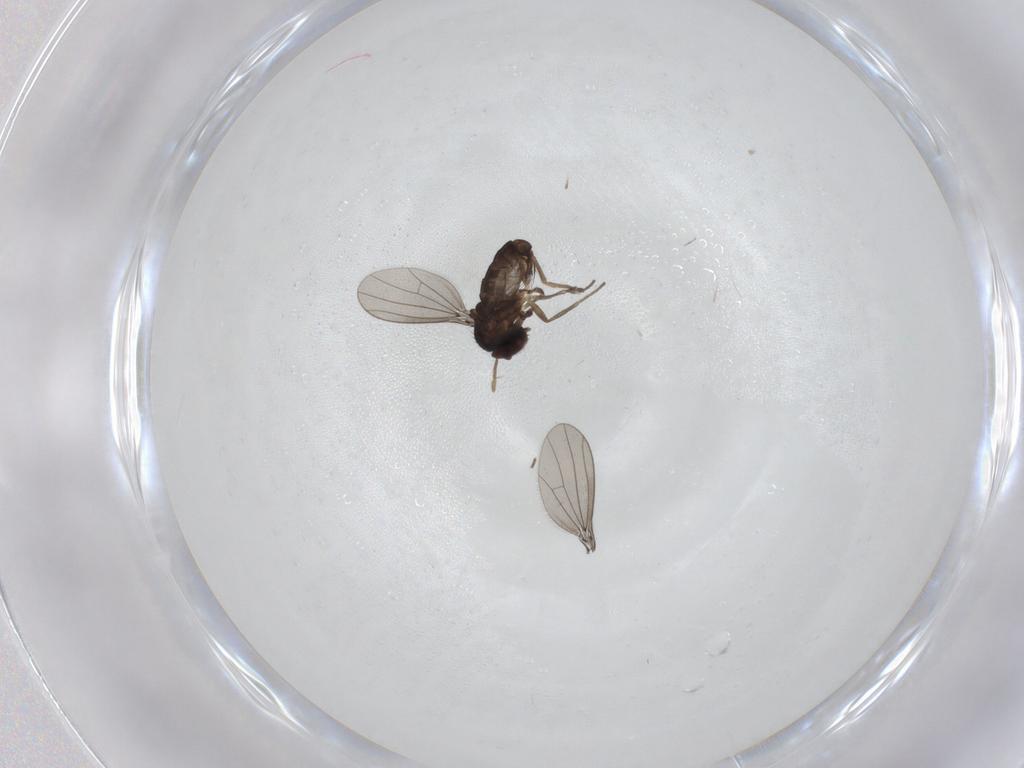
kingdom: Animalia
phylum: Arthropoda
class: Insecta
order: Diptera
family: Dolichopodidae
